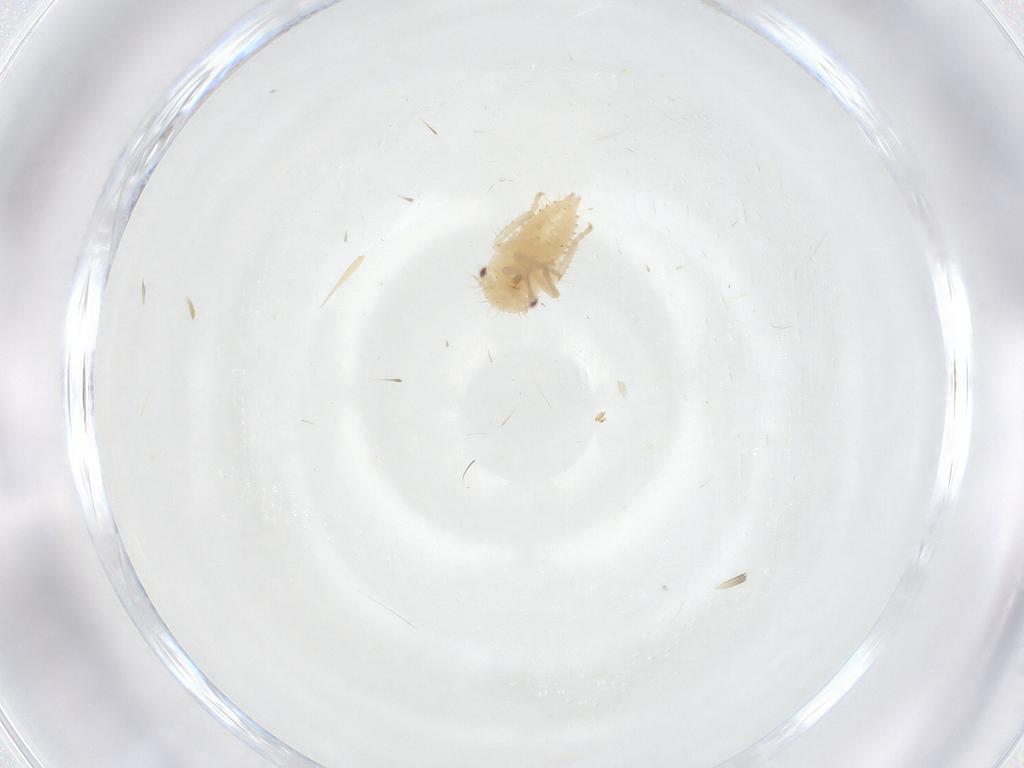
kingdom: Animalia
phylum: Arthropoda
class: Insecta
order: Hemiptera
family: Cicadellidae
